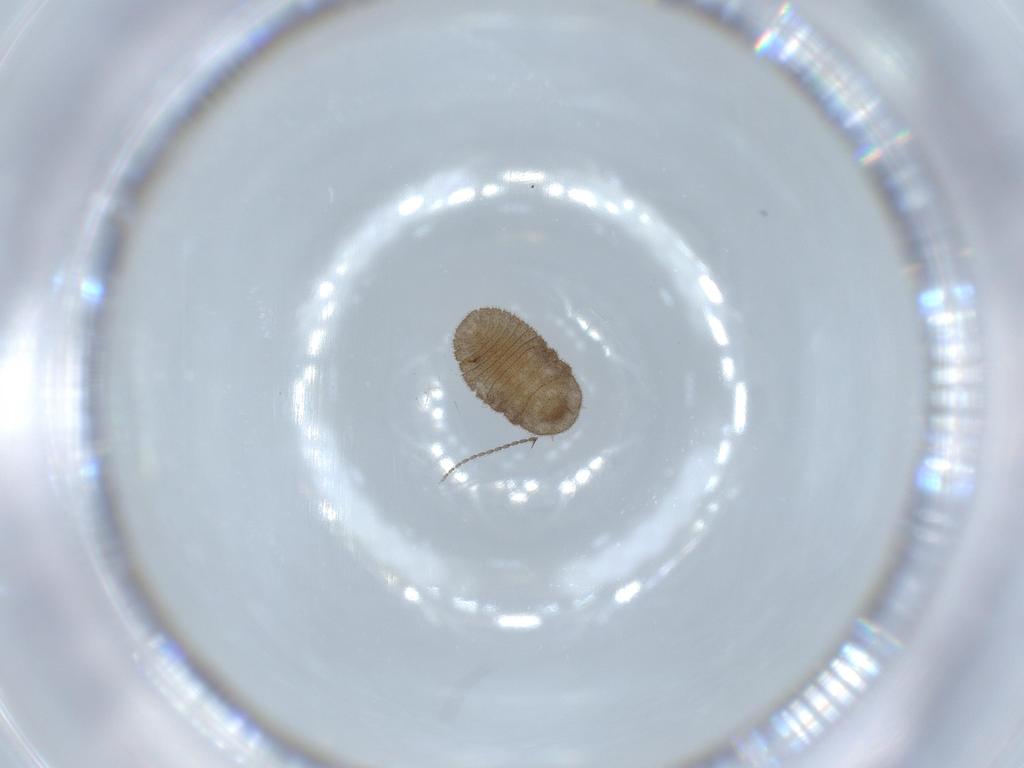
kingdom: Animalia
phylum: Arthropoda
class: Insecta
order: Coleoptera
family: Corylophidae
